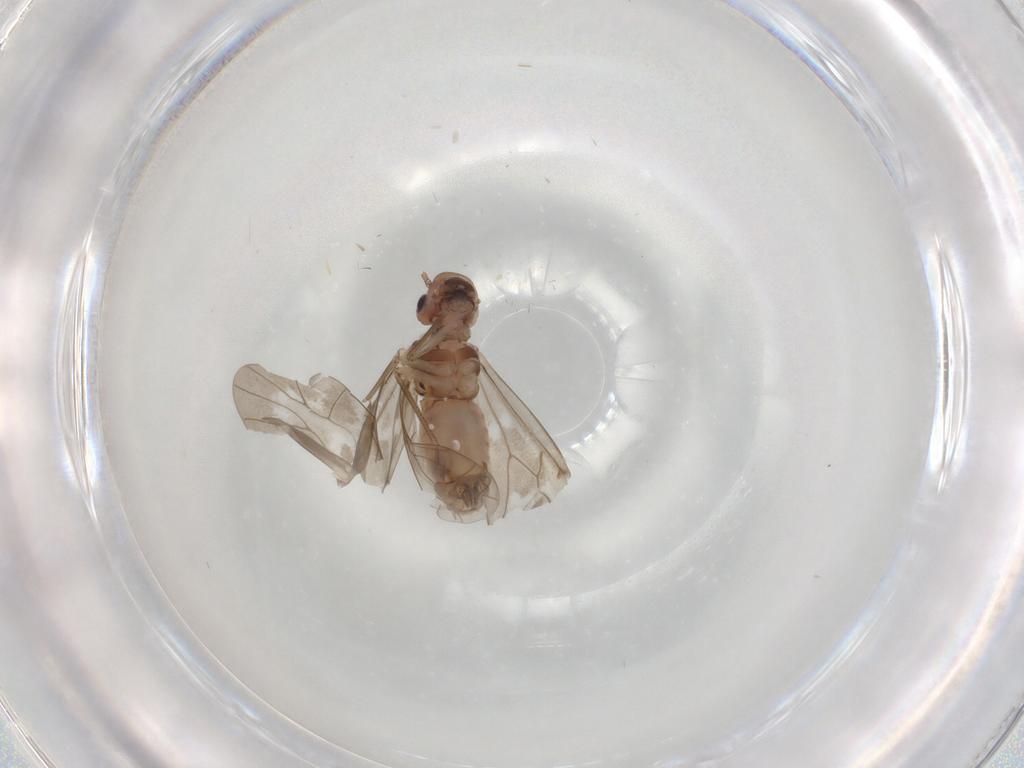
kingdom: Animalia
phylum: Arthropoda
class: Insecta
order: Psocodea
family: Peripsocidae
